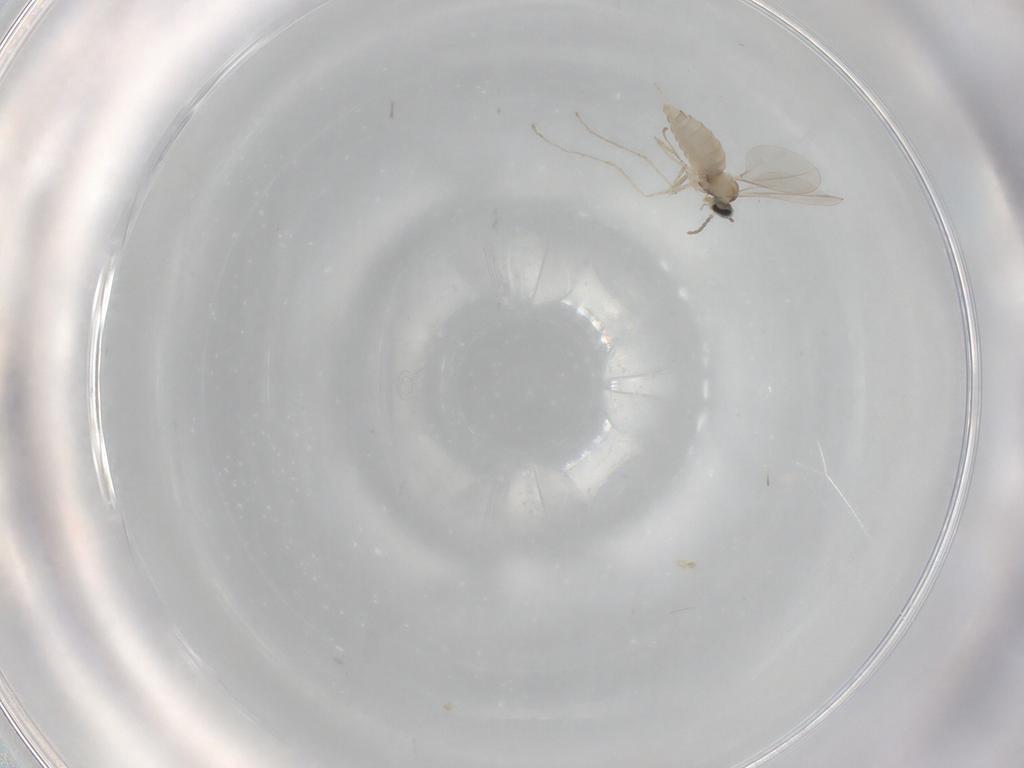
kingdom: Animalia
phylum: Arthropoda
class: Insecta
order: Diptera
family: Cecidomyiidae
